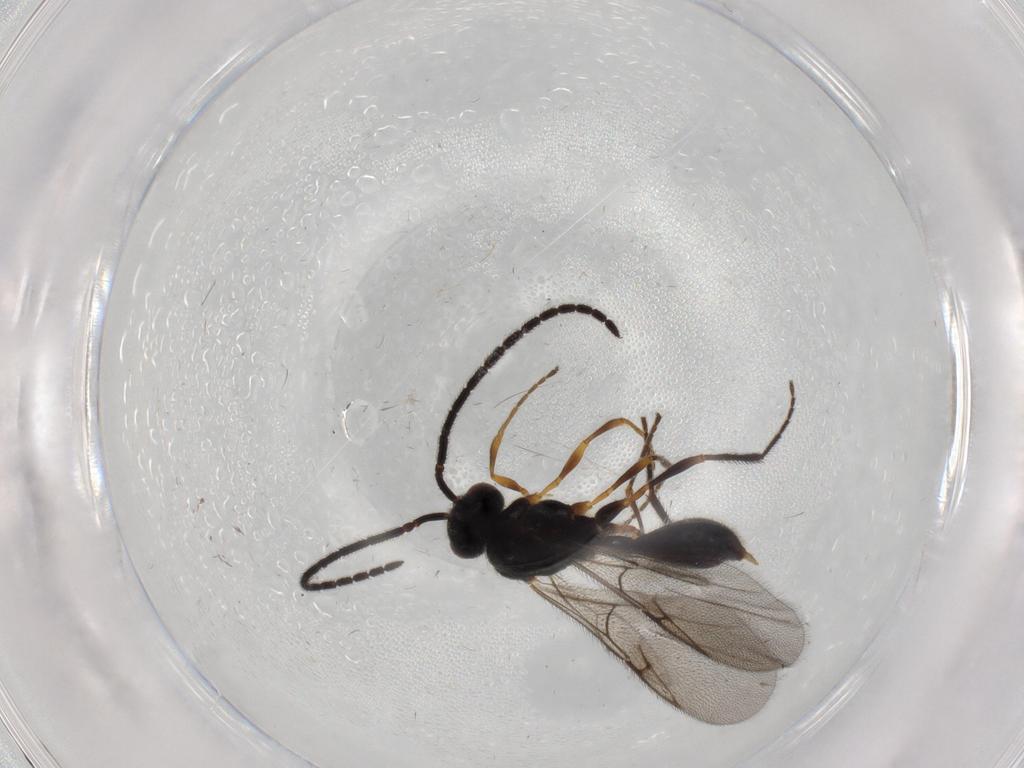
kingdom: Animalia
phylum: Arthropoda
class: Insecta
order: Hymenoptera
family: Diapriidae
